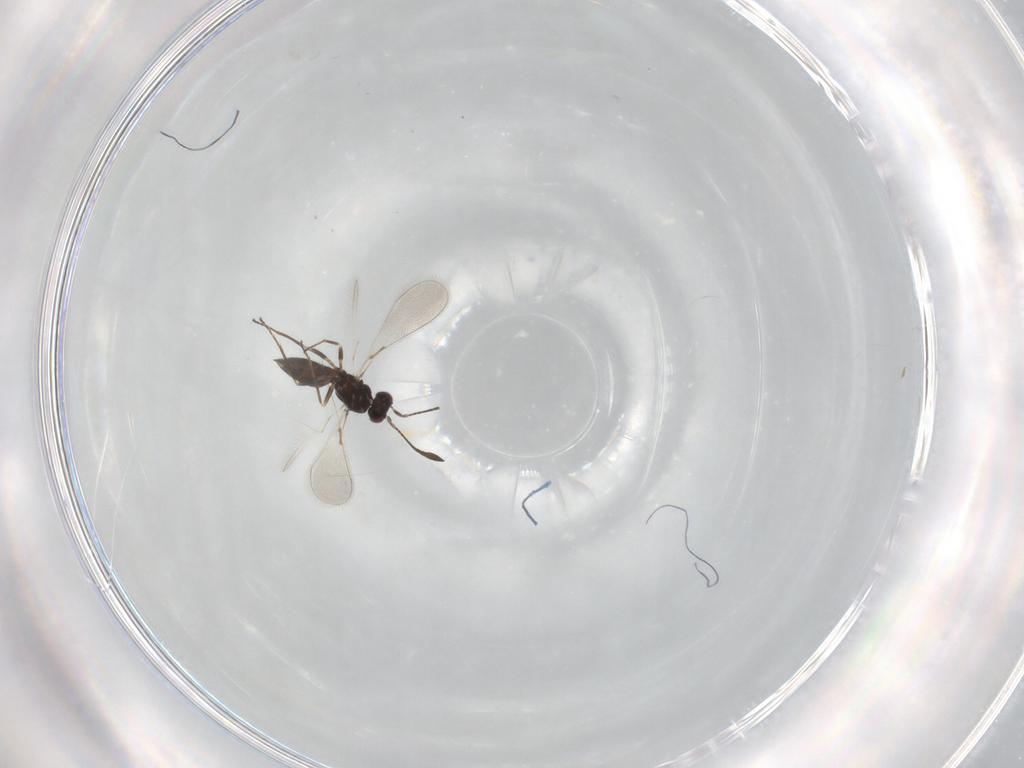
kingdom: Animalia
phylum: Arthropoda
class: Insecta
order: Hymenoptera
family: Mymaridae
